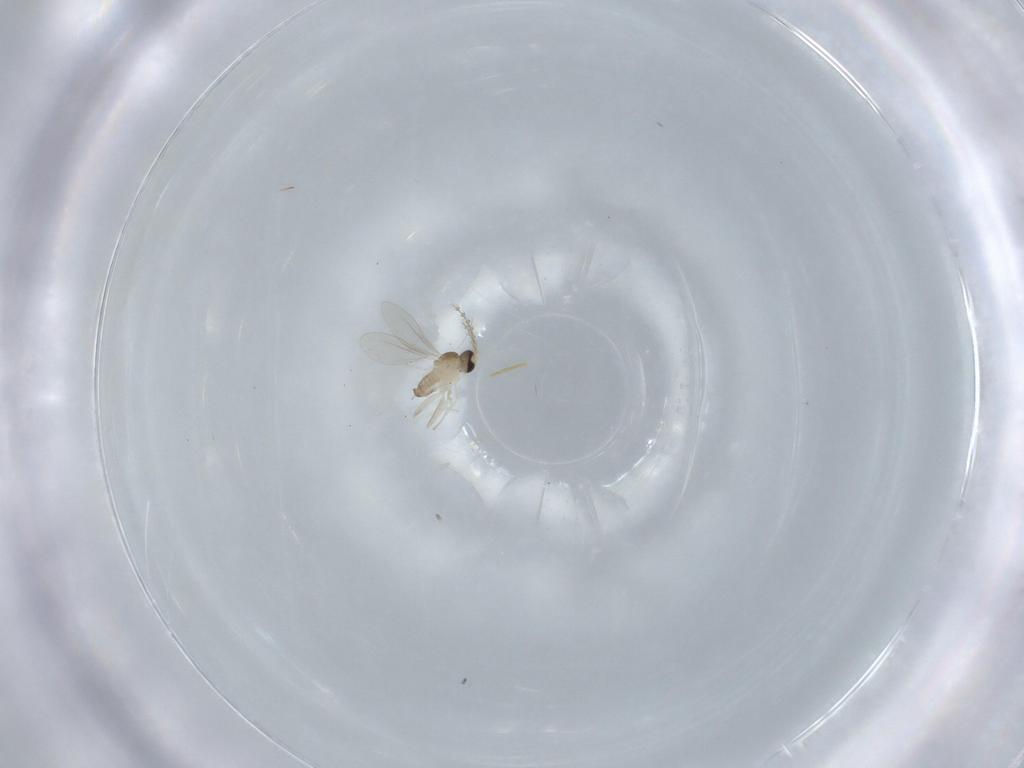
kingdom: Animalia
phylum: Arthropoda
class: Insecta
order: Diptera
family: Cecidomyiidae
